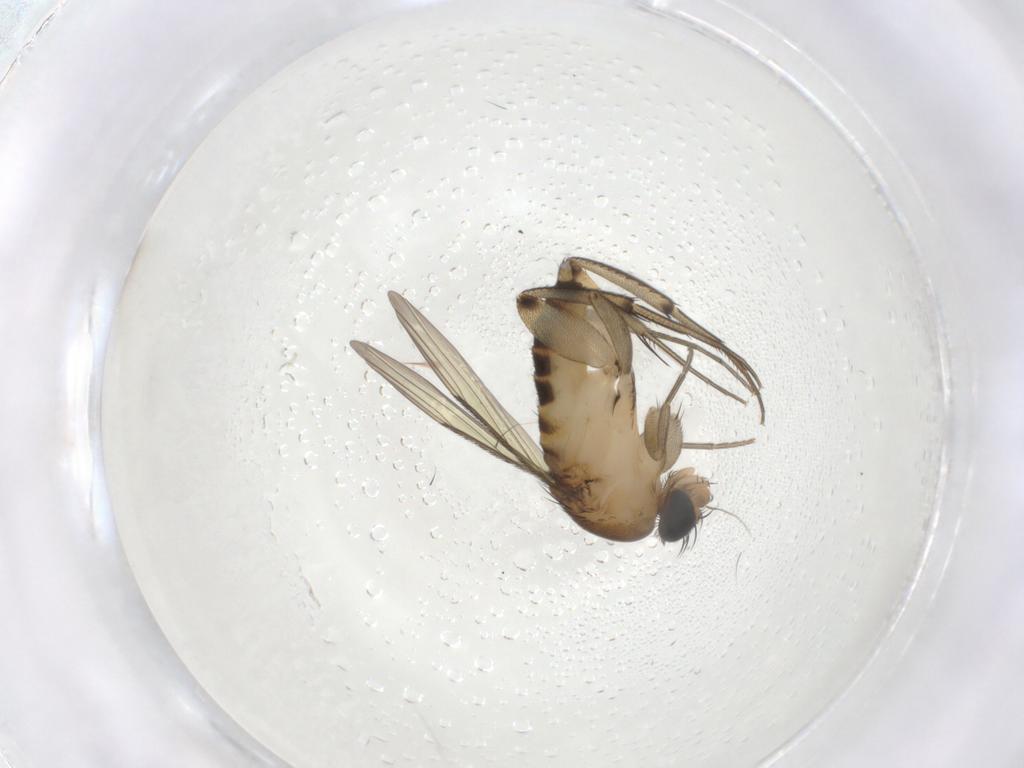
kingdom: Animalia
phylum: Arthropoda
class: Insecta
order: Diptera
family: Phoridae
